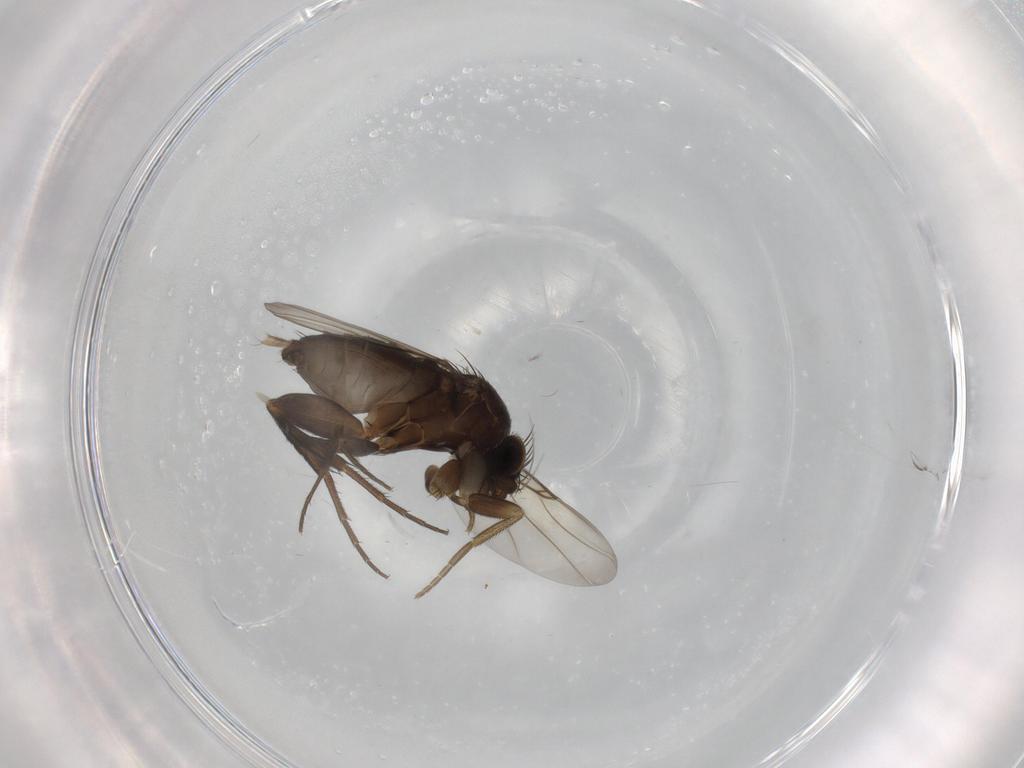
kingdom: Animalia
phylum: Arthropoda
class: Insecta
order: Diptera
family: Phoridae
